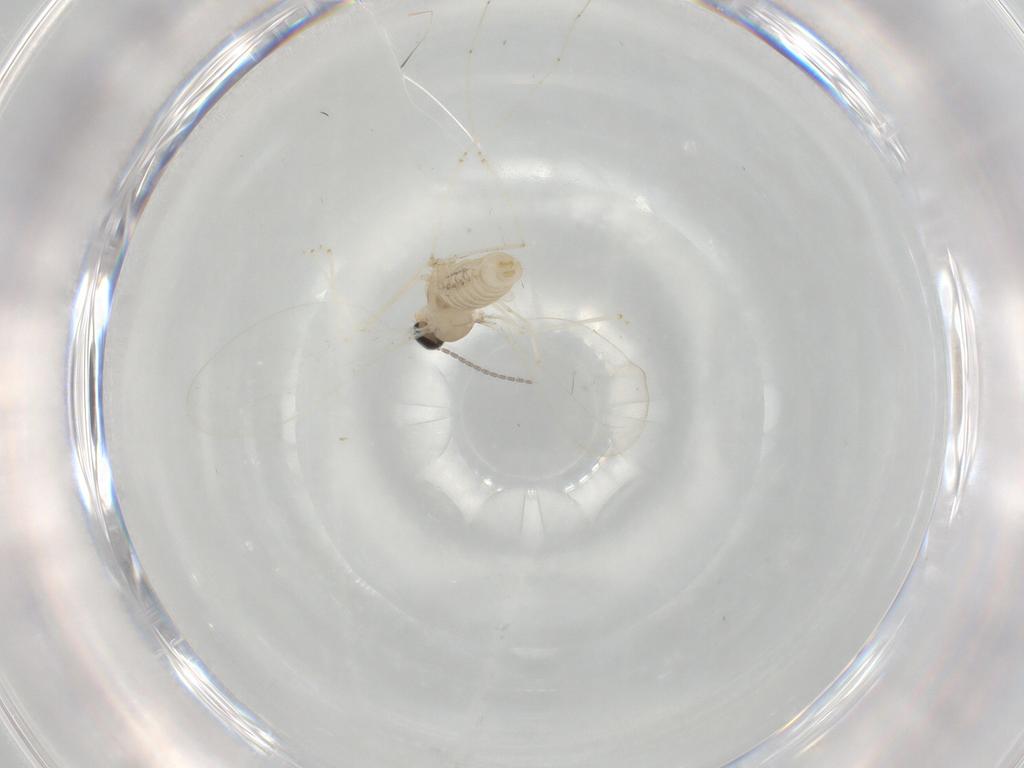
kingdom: Animalia
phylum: Arthropoda
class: Insecta
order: Diptera
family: Cecidomyiidae
